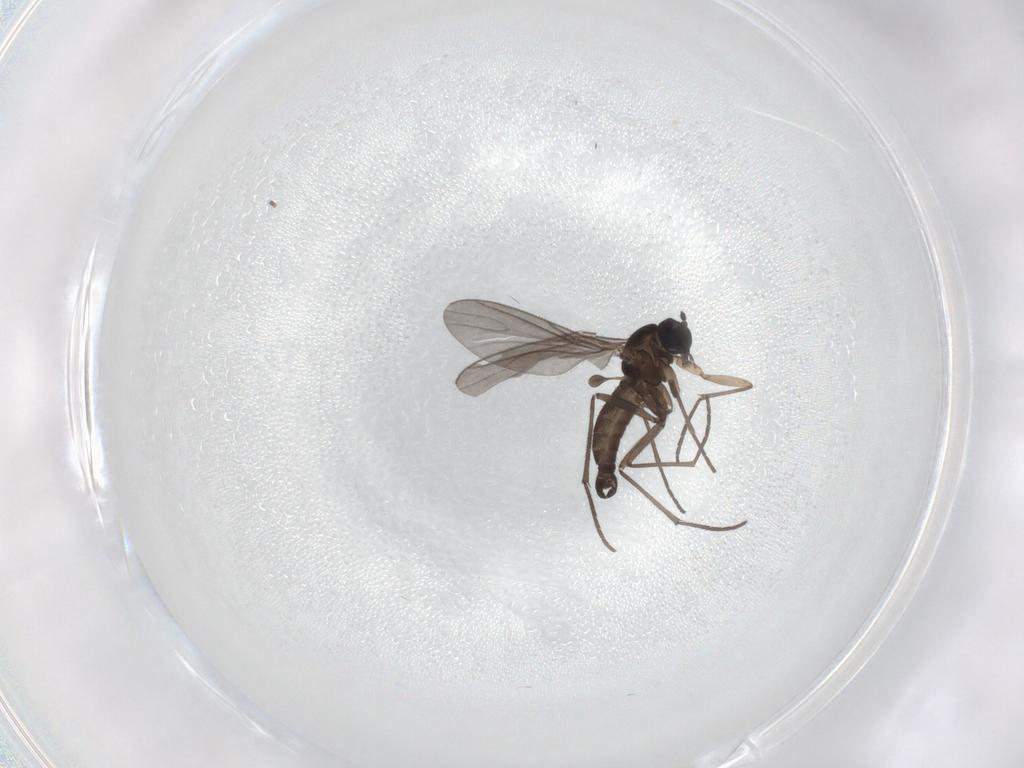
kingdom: Animalia
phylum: Arthropoda
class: Insecta
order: Diptera
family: Sciaridae
